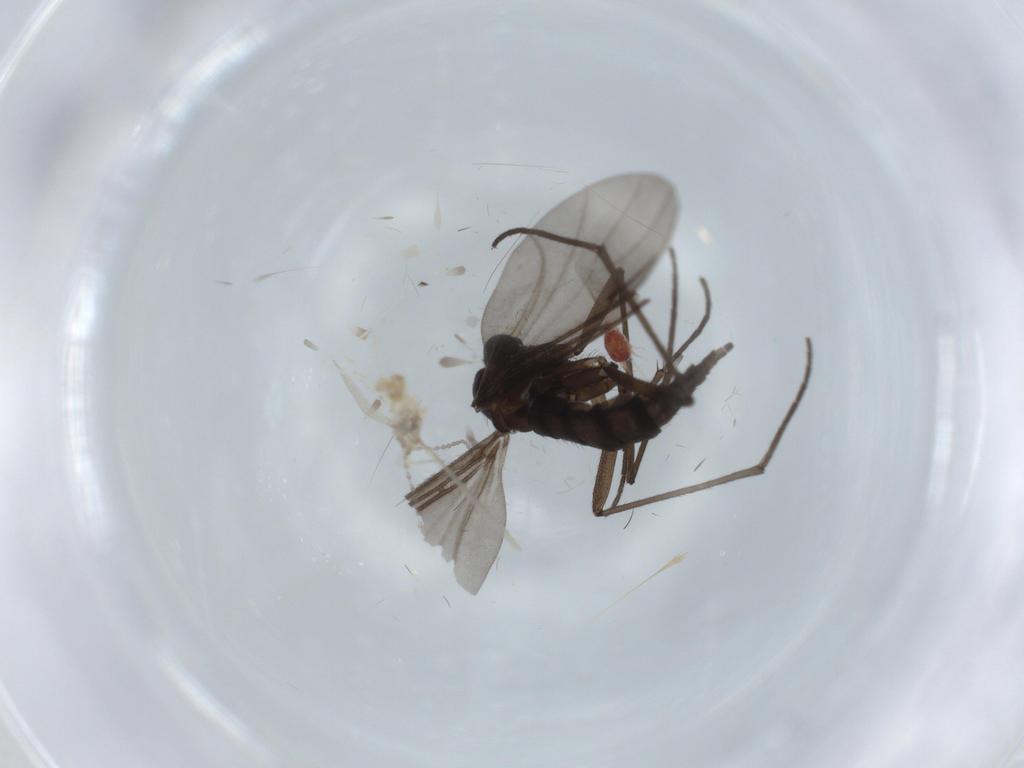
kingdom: Animalia
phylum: Arthropoda
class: Insecta
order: Diptera
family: Sciaridae
